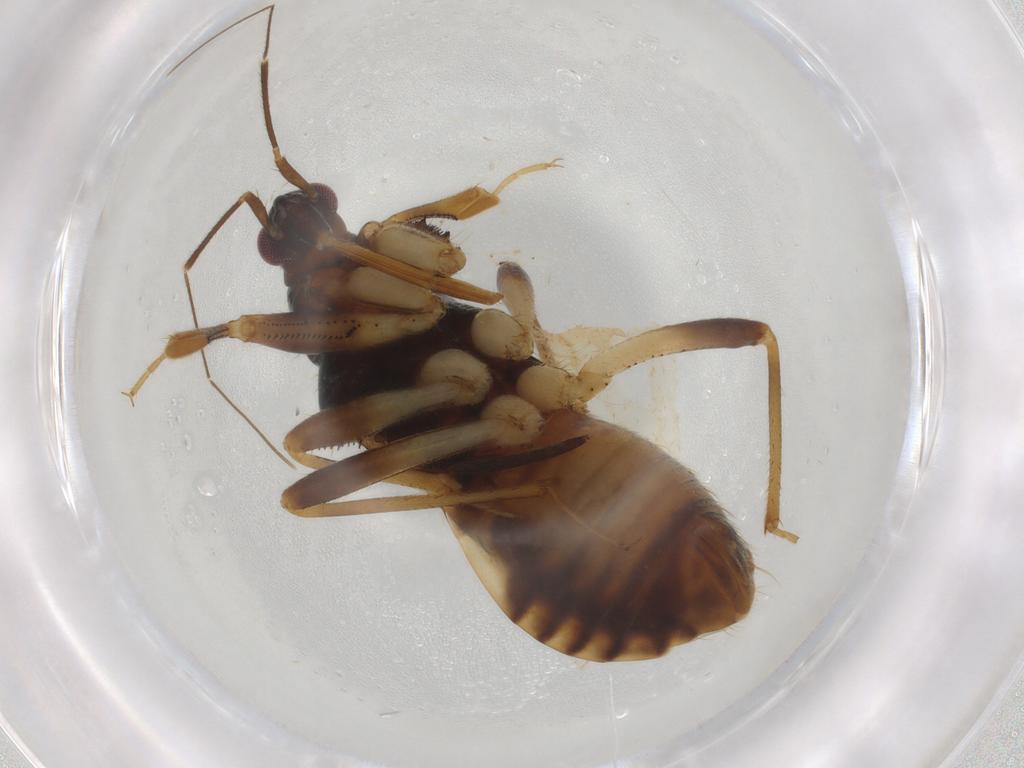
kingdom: Animalia
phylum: Arthropoda
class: Insecta
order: Hemiptera
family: Nabidae
